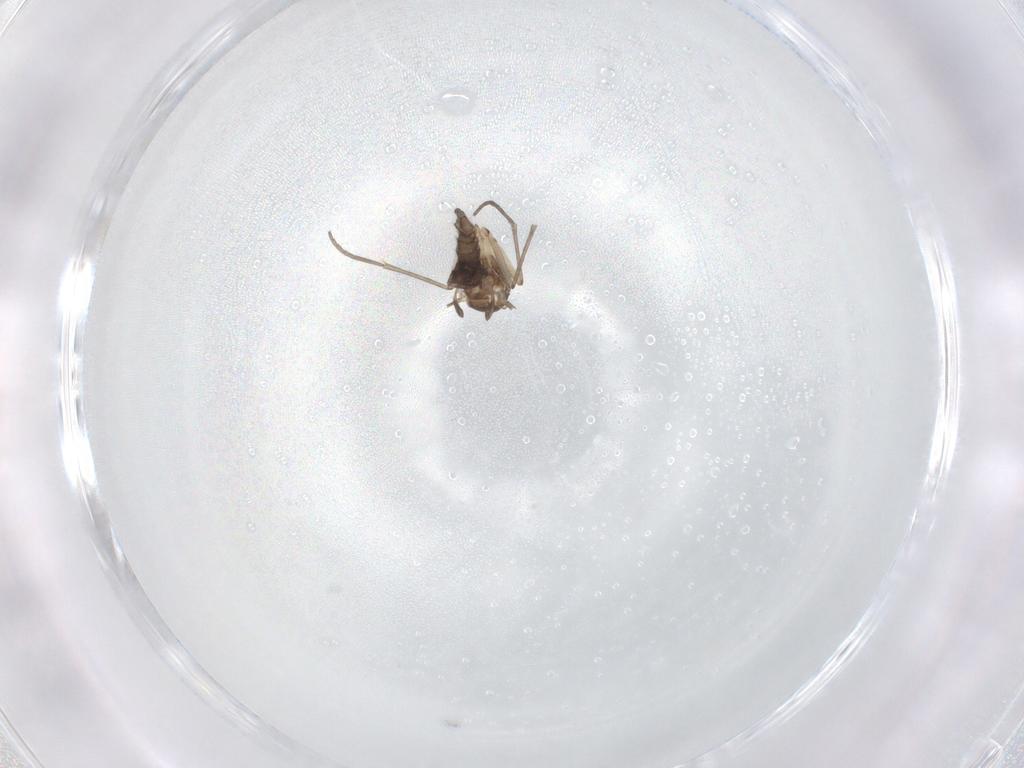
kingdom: Animalia
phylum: Arthropoda
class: Insecta
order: Diptera
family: Sciaridae
